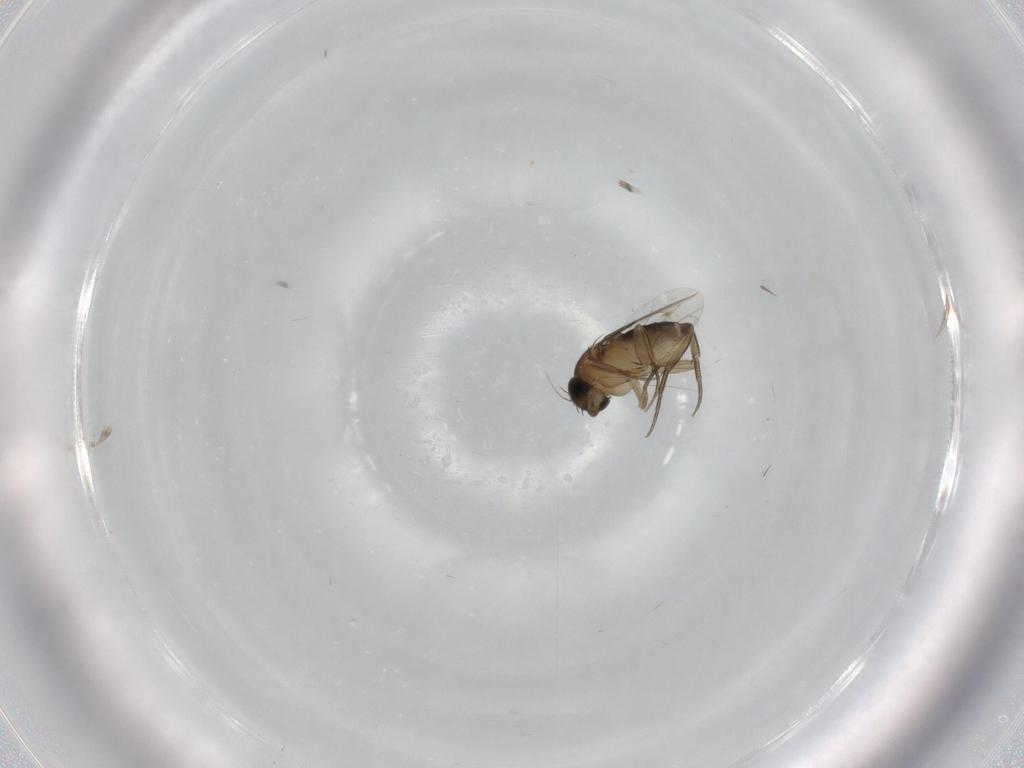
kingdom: Animalia
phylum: Arthropoda
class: Insecta
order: Diptera
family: Phoridae
